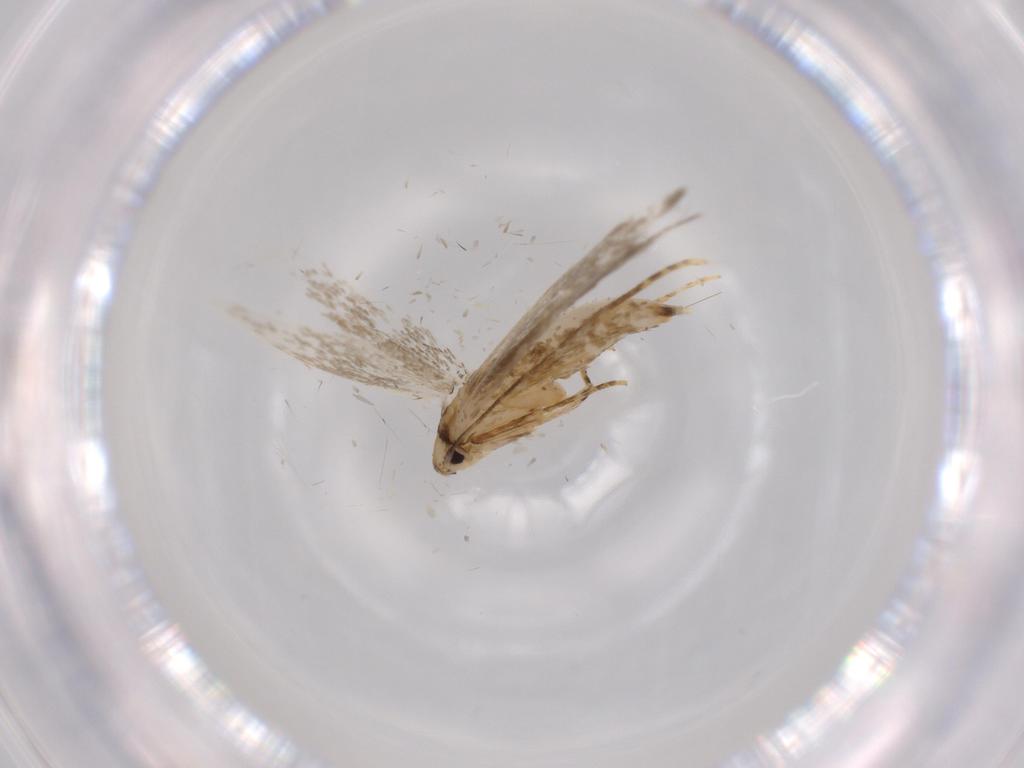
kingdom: Animalia
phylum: Arthropoda
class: Insecta
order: Lepidoptera
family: Tineidae
